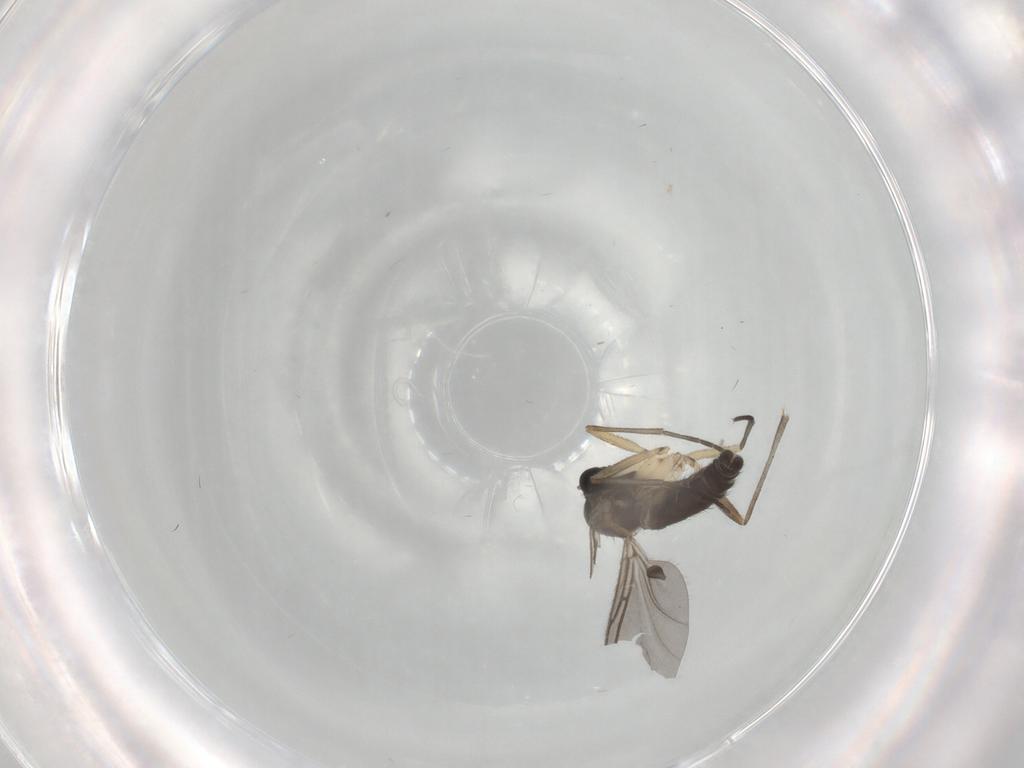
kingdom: Animalia
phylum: Arthropoda
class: Insecta
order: Diptera
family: Sciaridae
